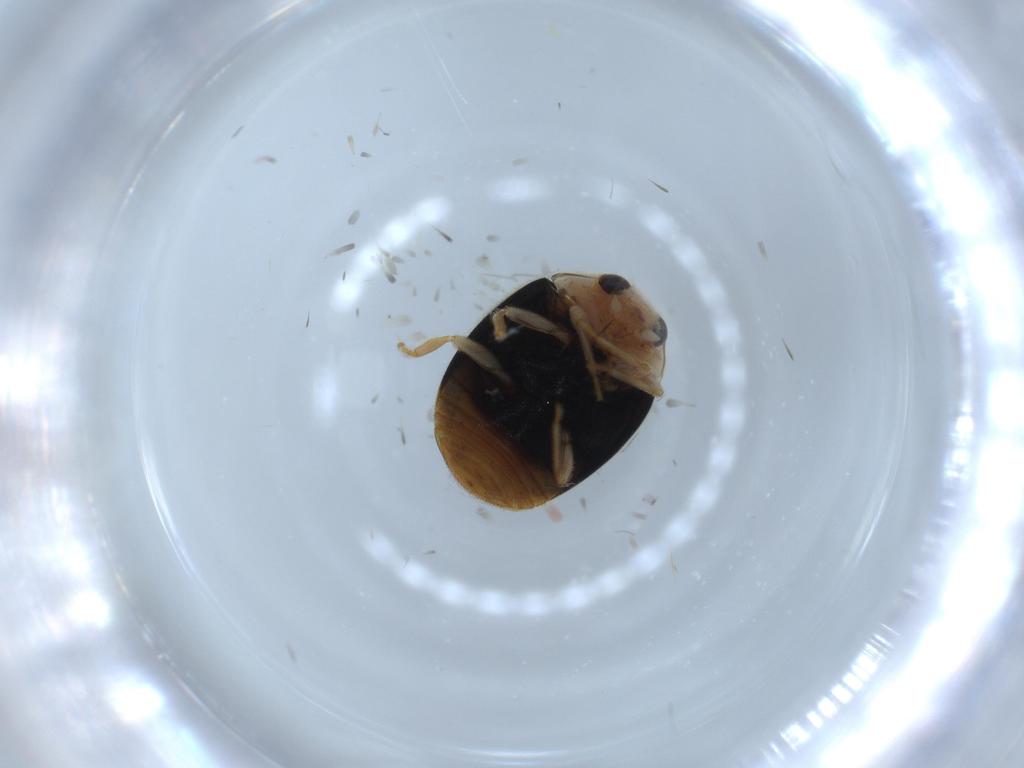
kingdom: Animalia
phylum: Arthropoda
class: Insecta
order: Coleoptera
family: Coccinellidae
